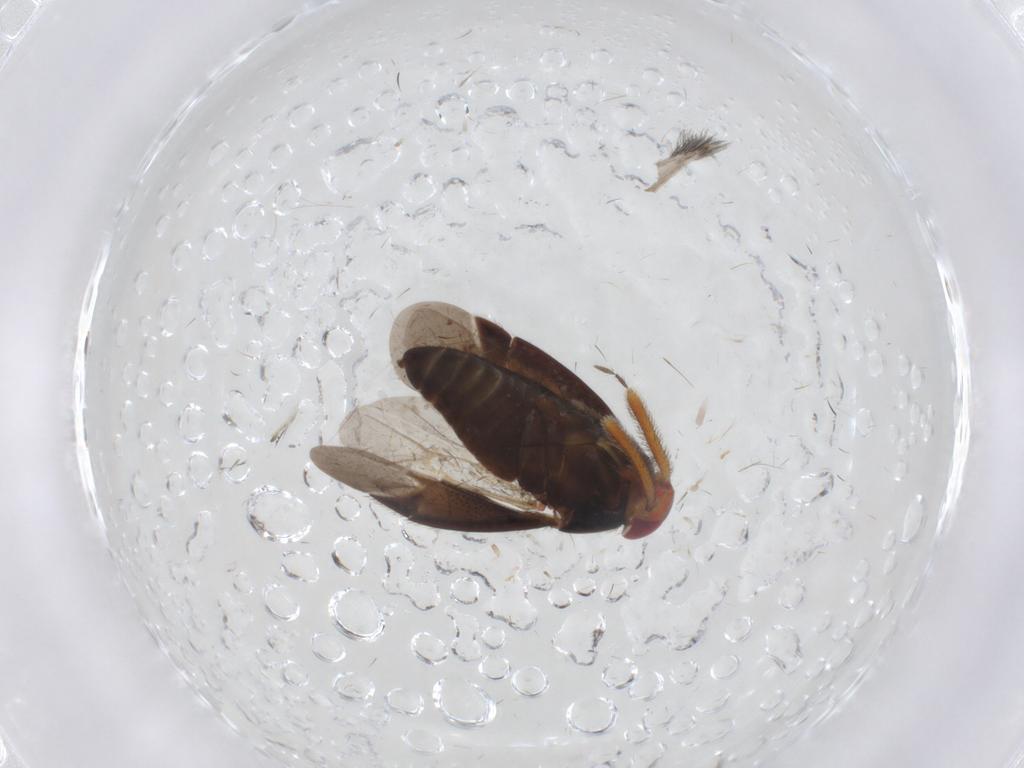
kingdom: Animalia
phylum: Arthropoda
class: Insecta
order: Hemiptera
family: Miridae
